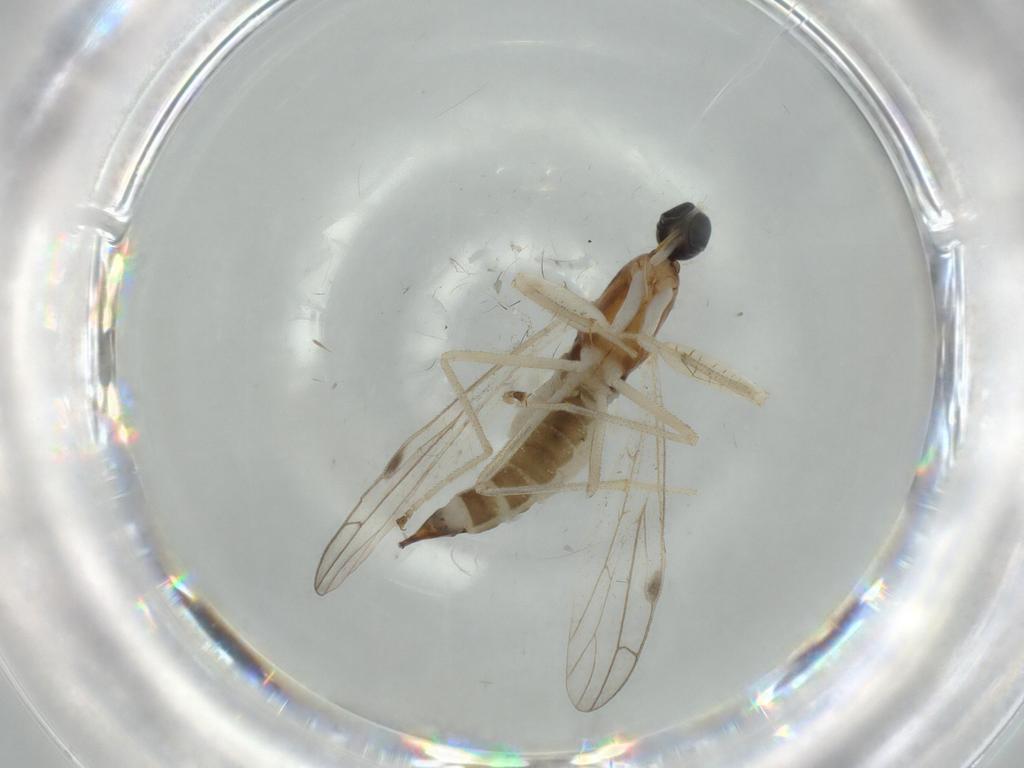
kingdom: Animalia
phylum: Arthropoda
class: Insecta
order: Diptera
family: Empididae
